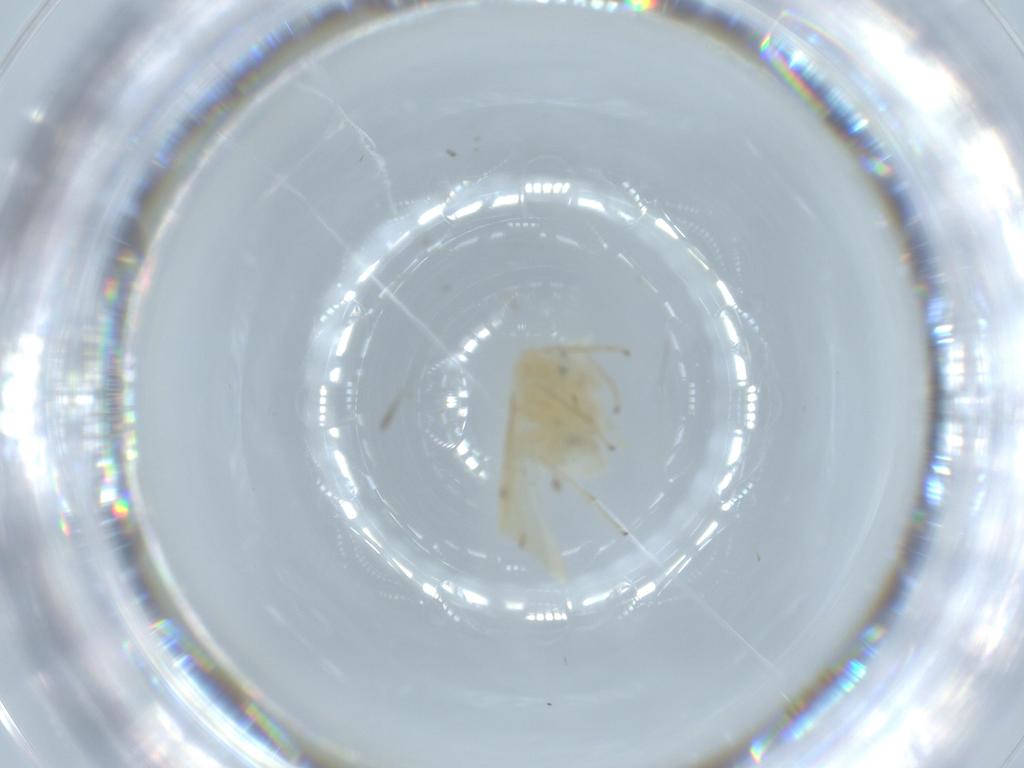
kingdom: Animalia
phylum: Arthropoda
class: Insecta
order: Psocodea
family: Caeciliusidae
